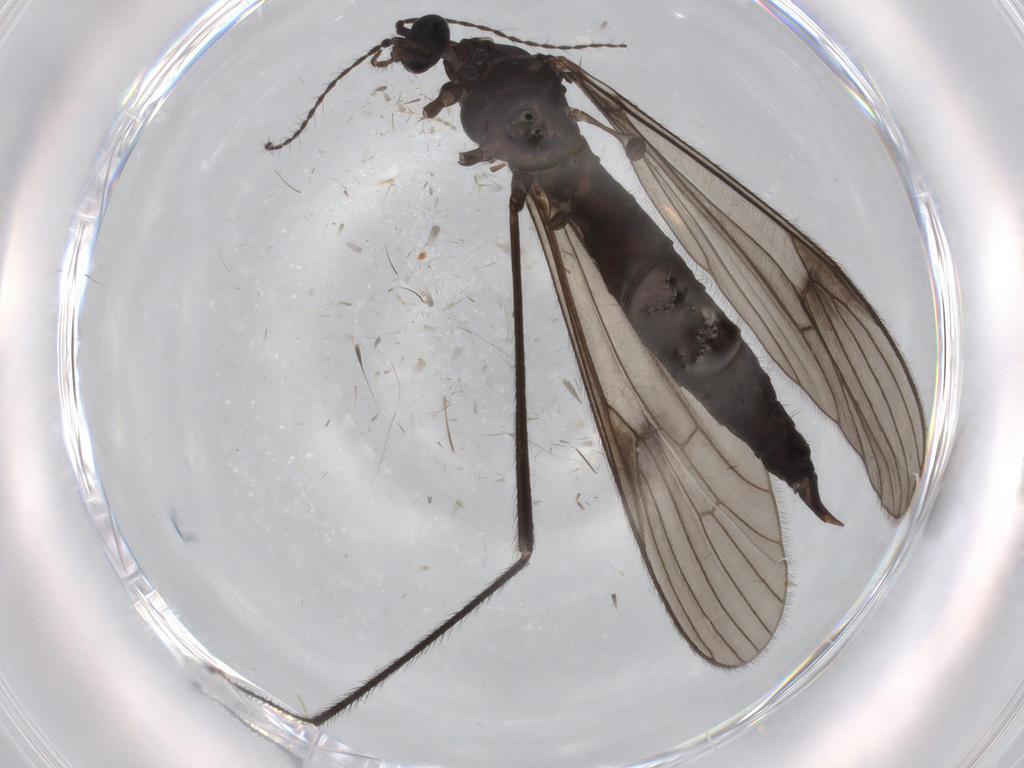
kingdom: Animalia
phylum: Arthropoda
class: Insecta
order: Diptera
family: Limoniidae
